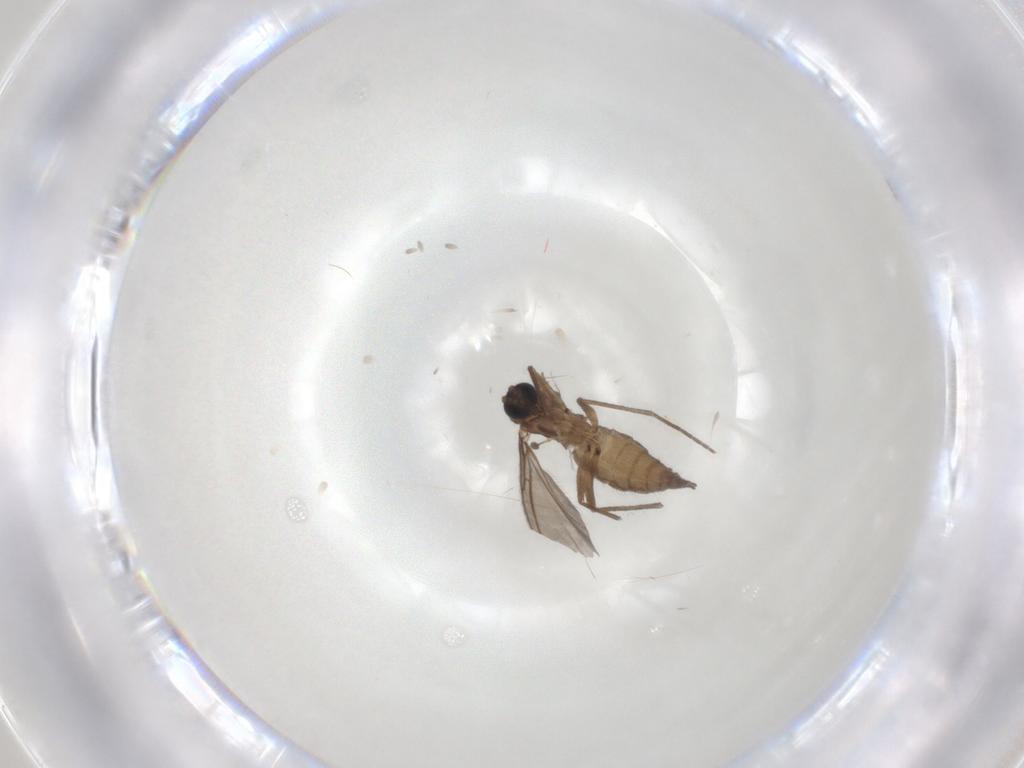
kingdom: Animalia
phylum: Arthropoda
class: Insecta
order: Diptera
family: Sciaridae
